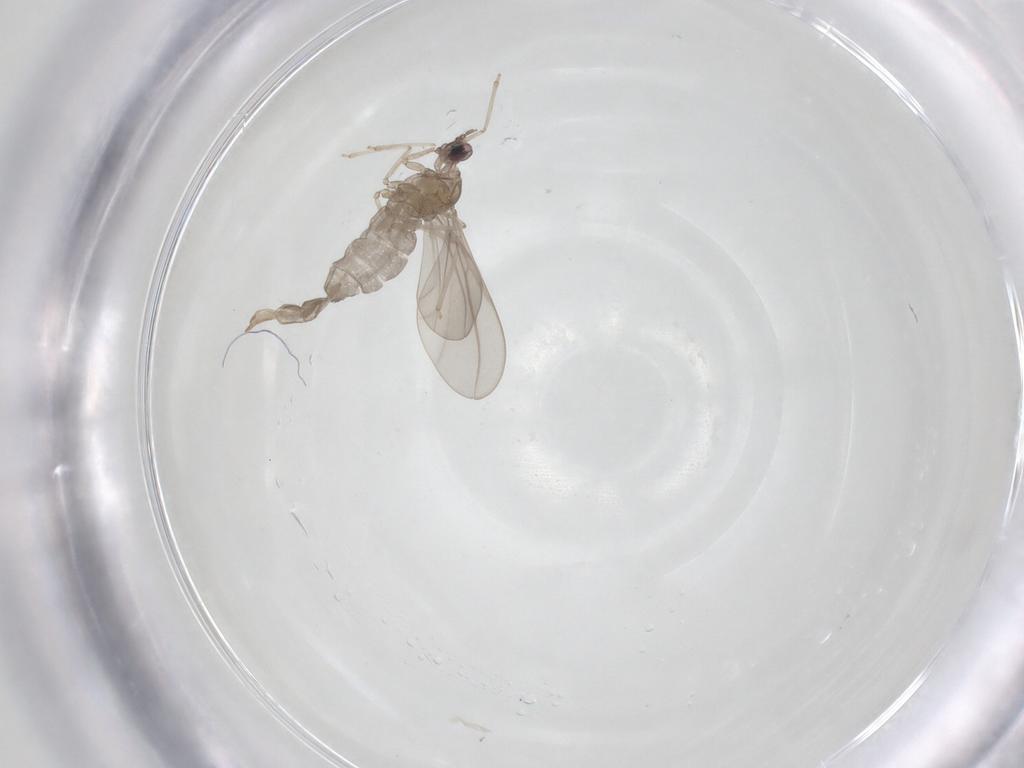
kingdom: Animalia
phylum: Arthropoda
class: Insecta
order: Diptera
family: Limoniidae
